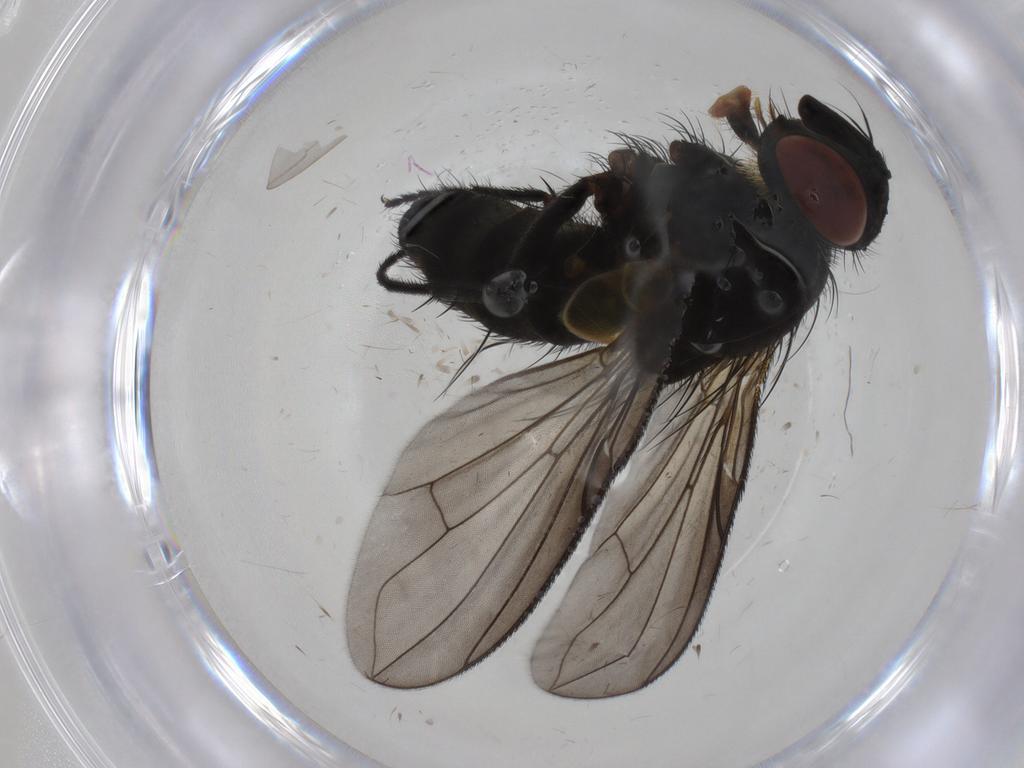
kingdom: Animalia
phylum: Arthropoda
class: Insecta
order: Diptera
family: Tachinidae
